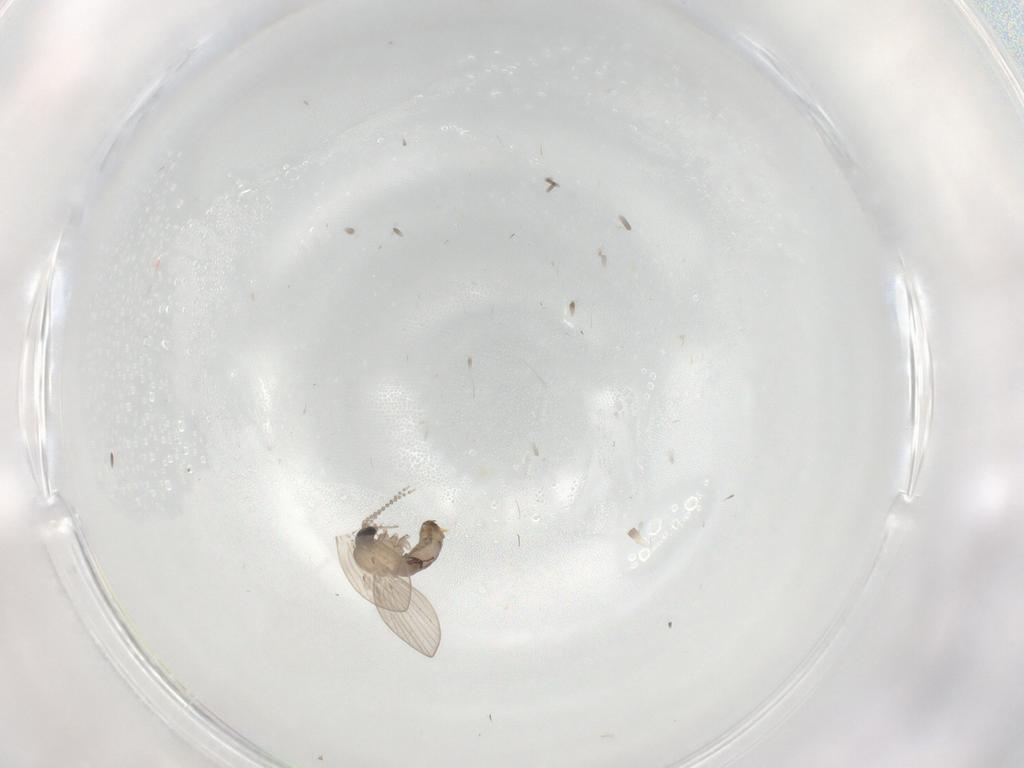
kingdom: Animalia
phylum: Arthropoda
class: Insecta
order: Diptera
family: Psychodidae
